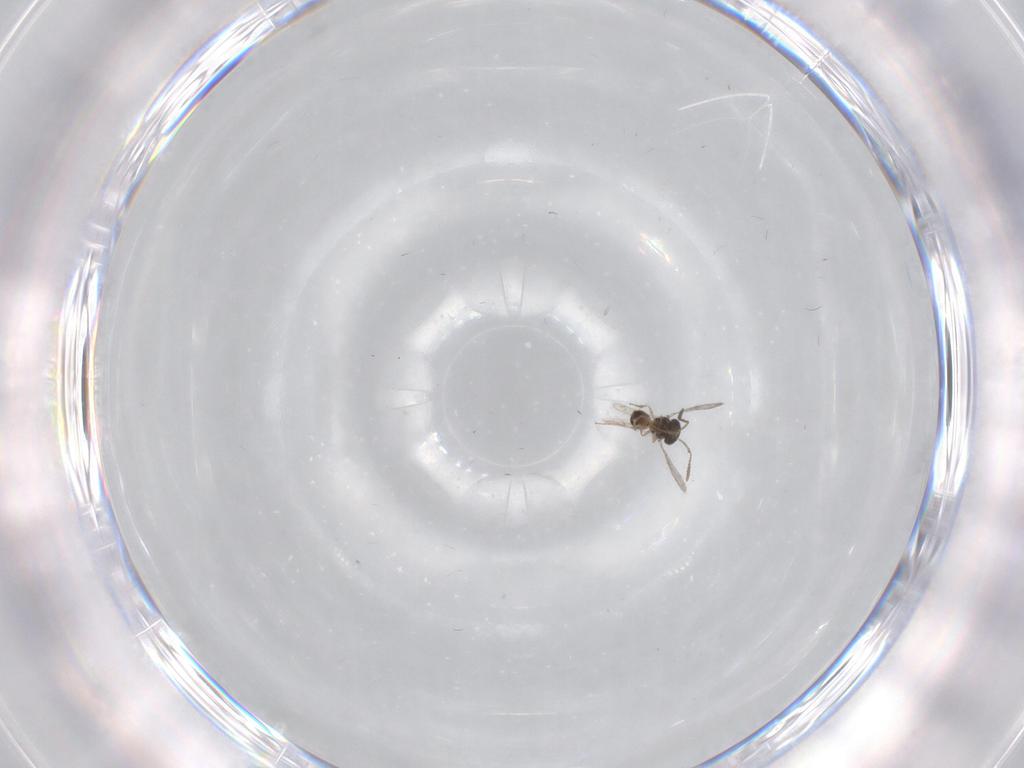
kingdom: Animalia
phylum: Arthropoda
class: Insecta
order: Hymenoptera
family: Scelionidae
